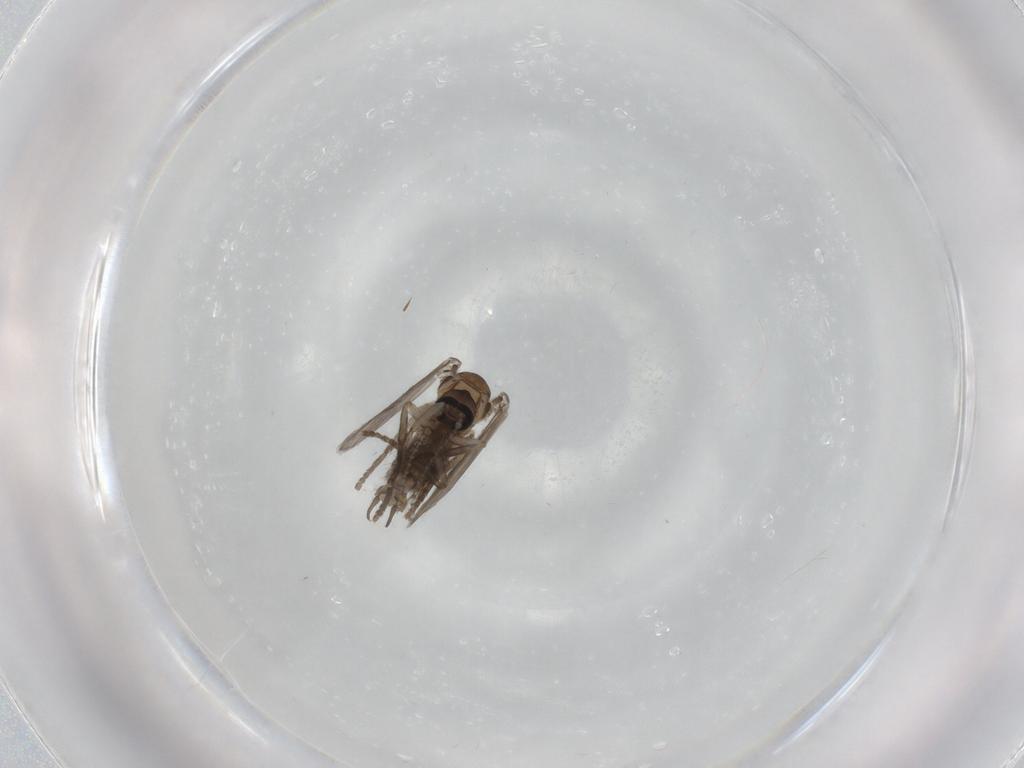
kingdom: Animalia
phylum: Arthropoda
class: Insecta
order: Diptera
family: Psychodidae
